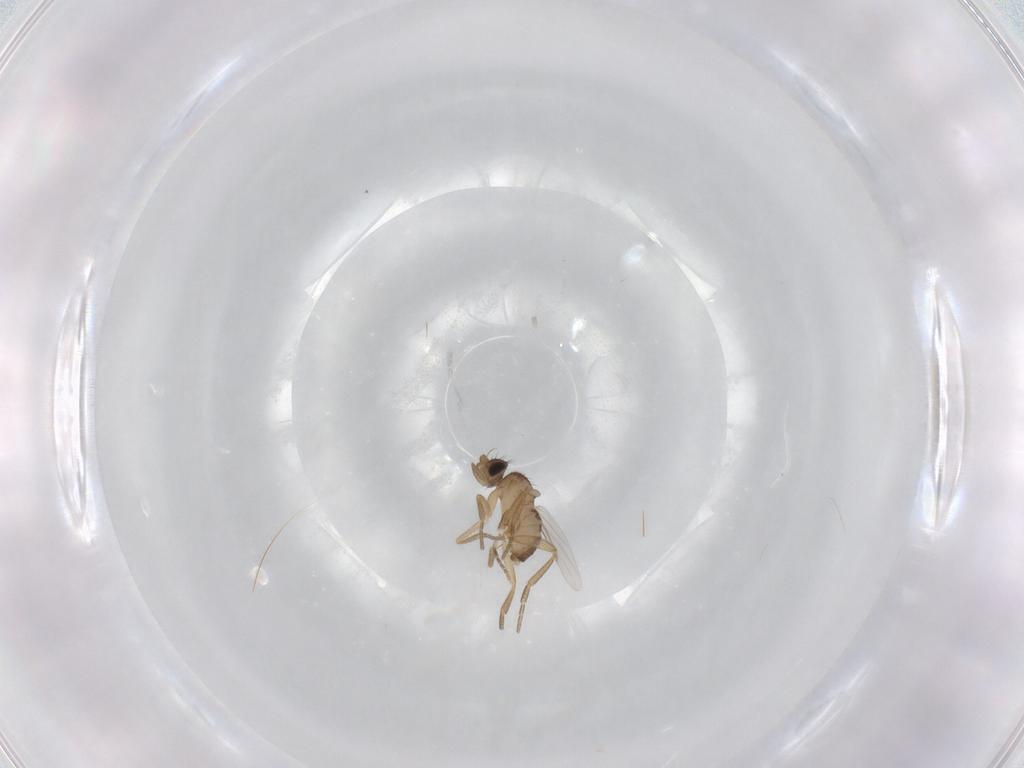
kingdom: Animalia
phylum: Arthropoda
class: Insecta
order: Diptera
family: Phoridae
